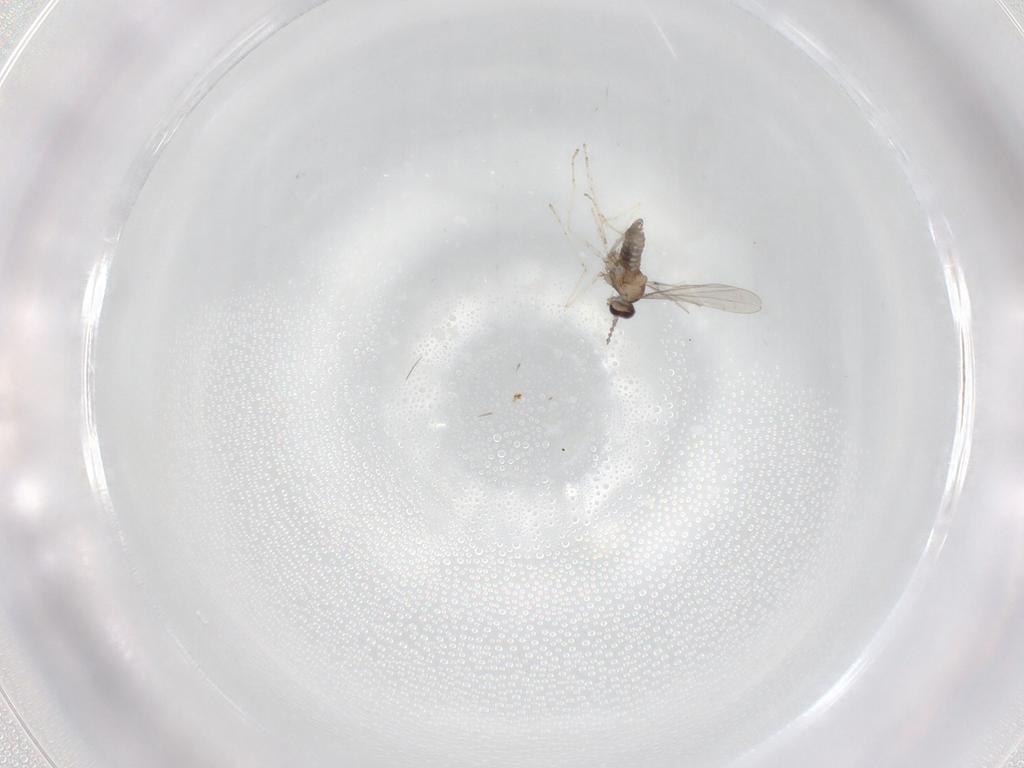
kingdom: Animalia
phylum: Arthropoda
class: Insecta
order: Diptera
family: Cecidomyiidae
